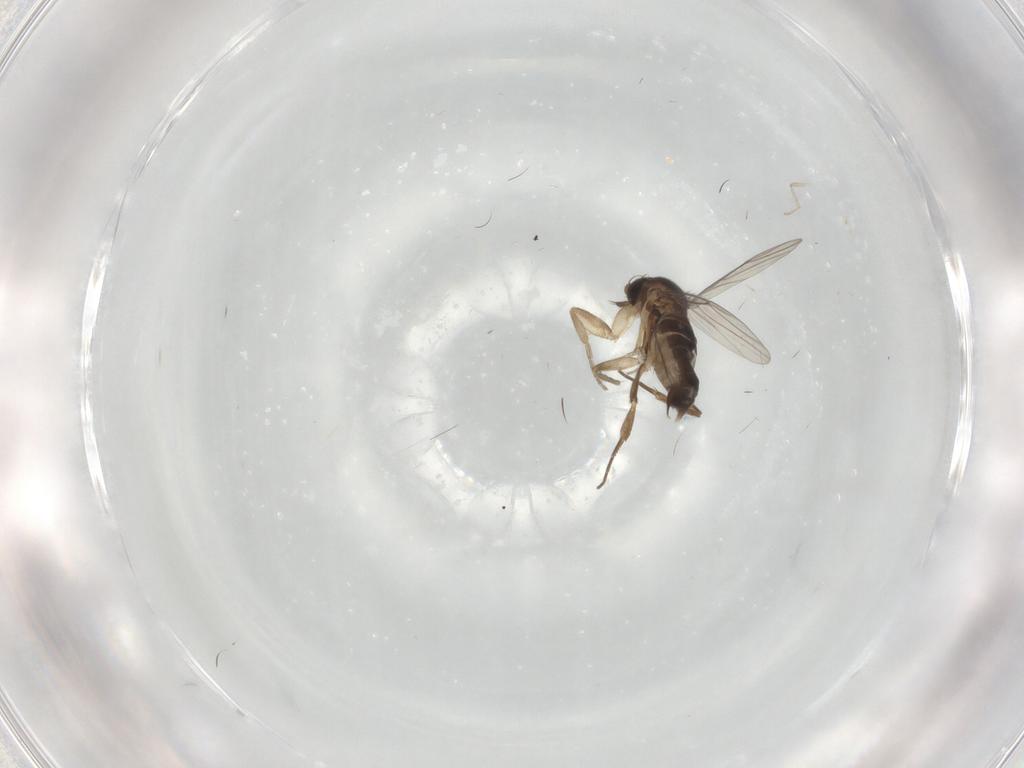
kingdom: Animalia
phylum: Arthropoda
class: Insecta
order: Diptera
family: Phoridae
